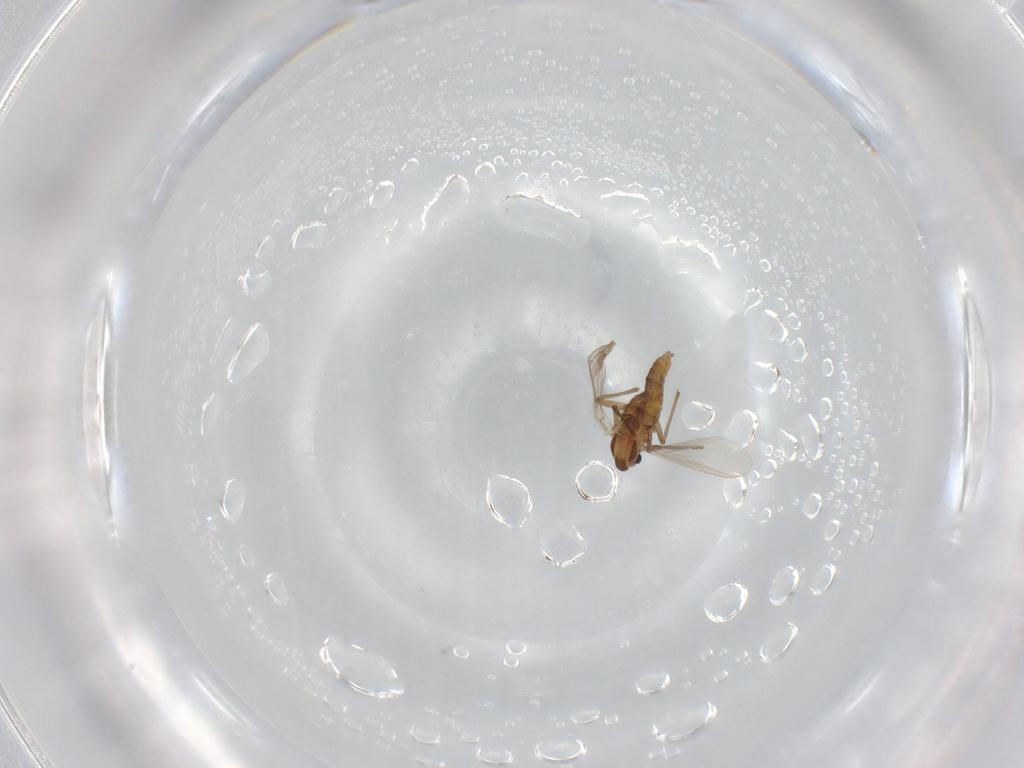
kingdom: Animalia
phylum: Arthropoda
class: Insecta
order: Diptera
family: Chironomidae
